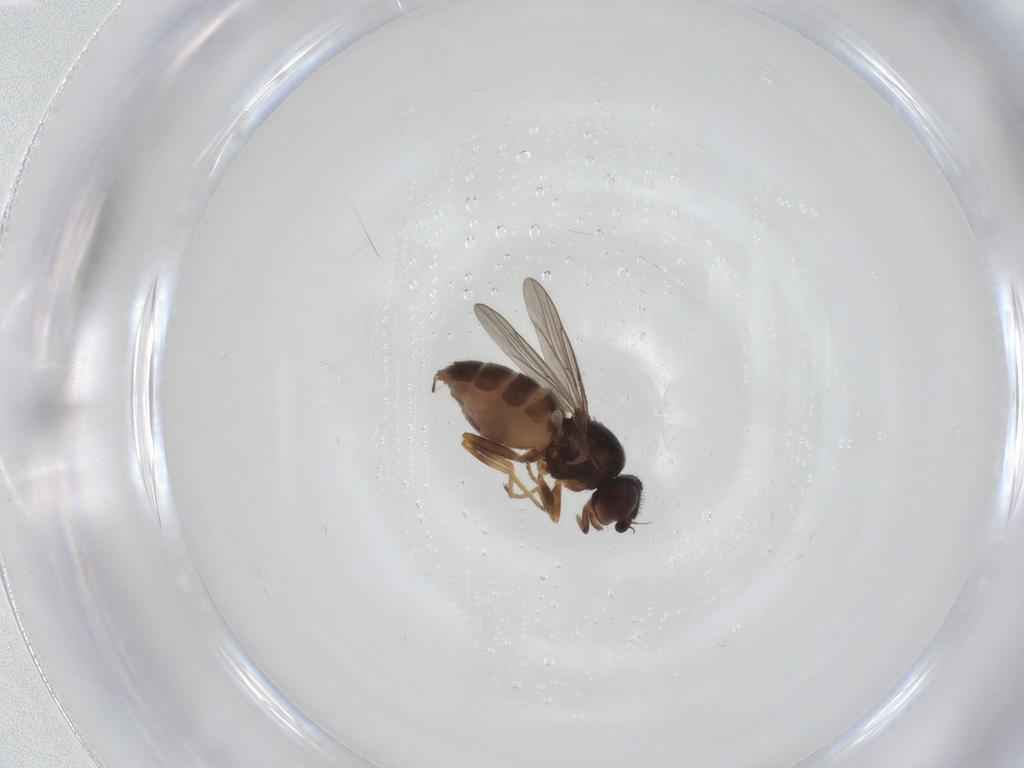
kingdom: Animalia
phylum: Arthropoda
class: Insecta
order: Diptera
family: Chloropidae
